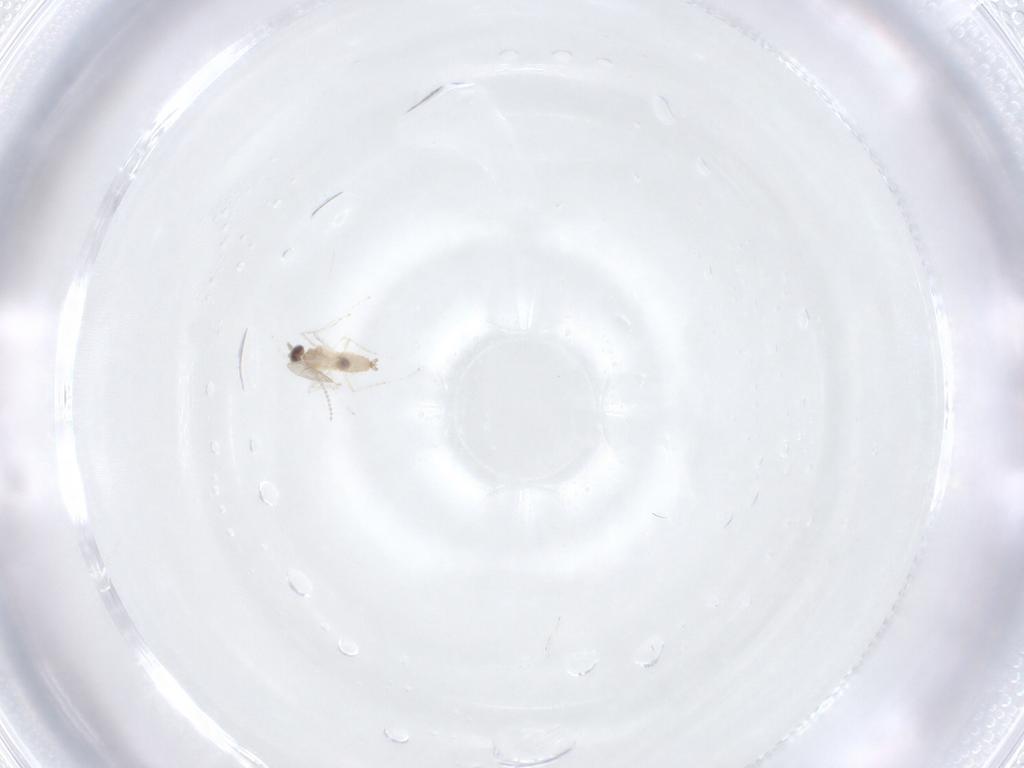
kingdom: Animalia
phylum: Arthropoda
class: Insecta
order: Diptera
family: Cecidomyiidae
